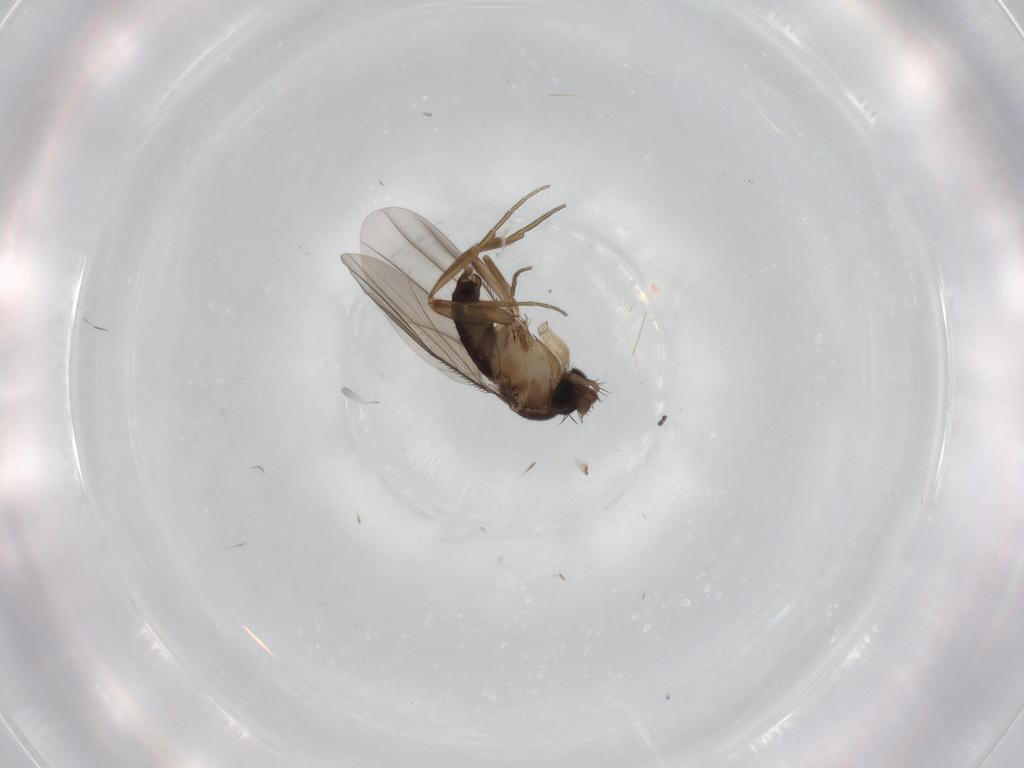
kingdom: Animalia
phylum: Arthropoda
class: Insecta
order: Diptera
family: Phoridae
